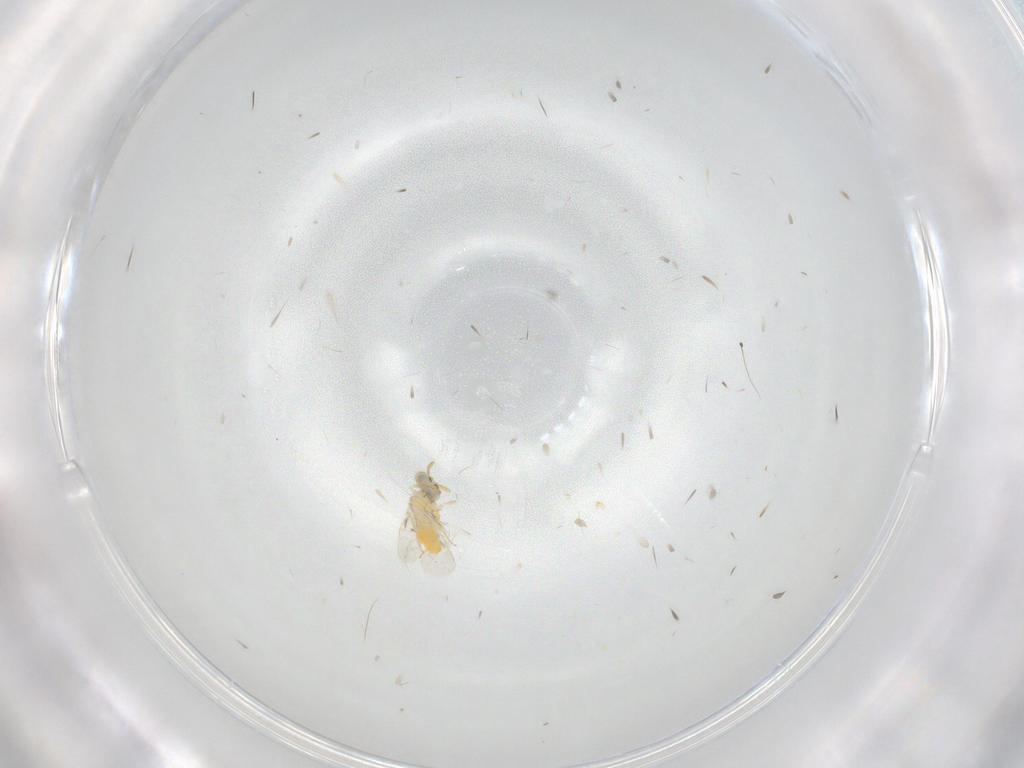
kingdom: Animalia
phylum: Arthropoda
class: Insecta
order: Hymenoptera
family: Aphelinidae
